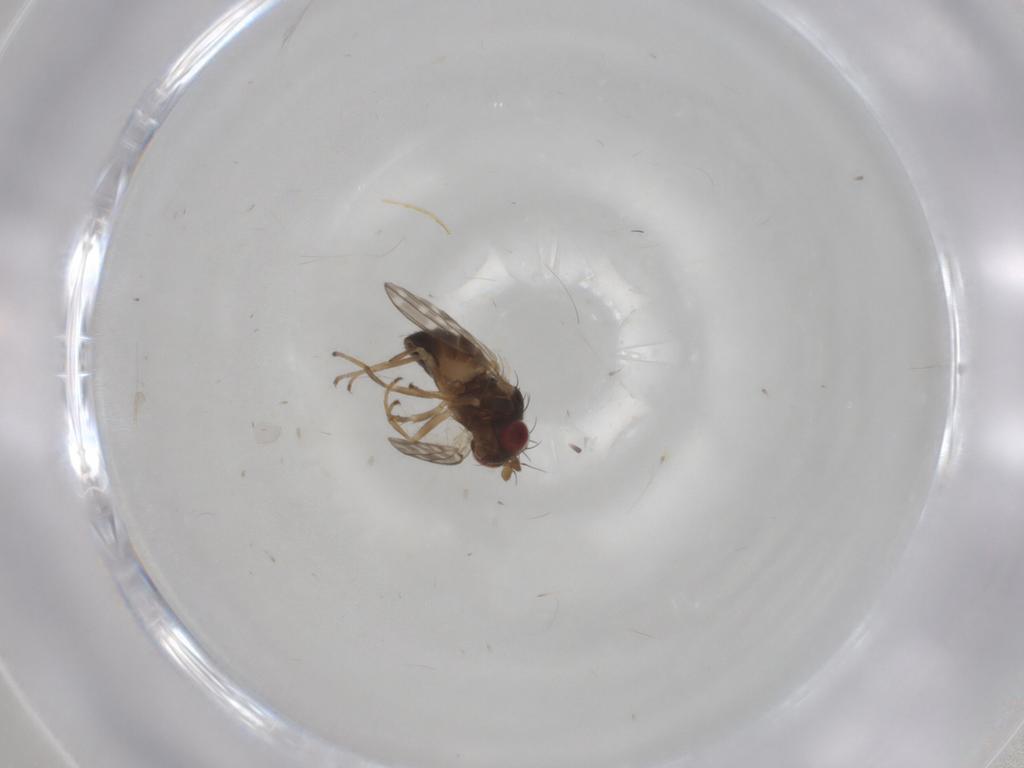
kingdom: Animalia
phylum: Arthropoda
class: Insecta
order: Diptera
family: Ephydridae
